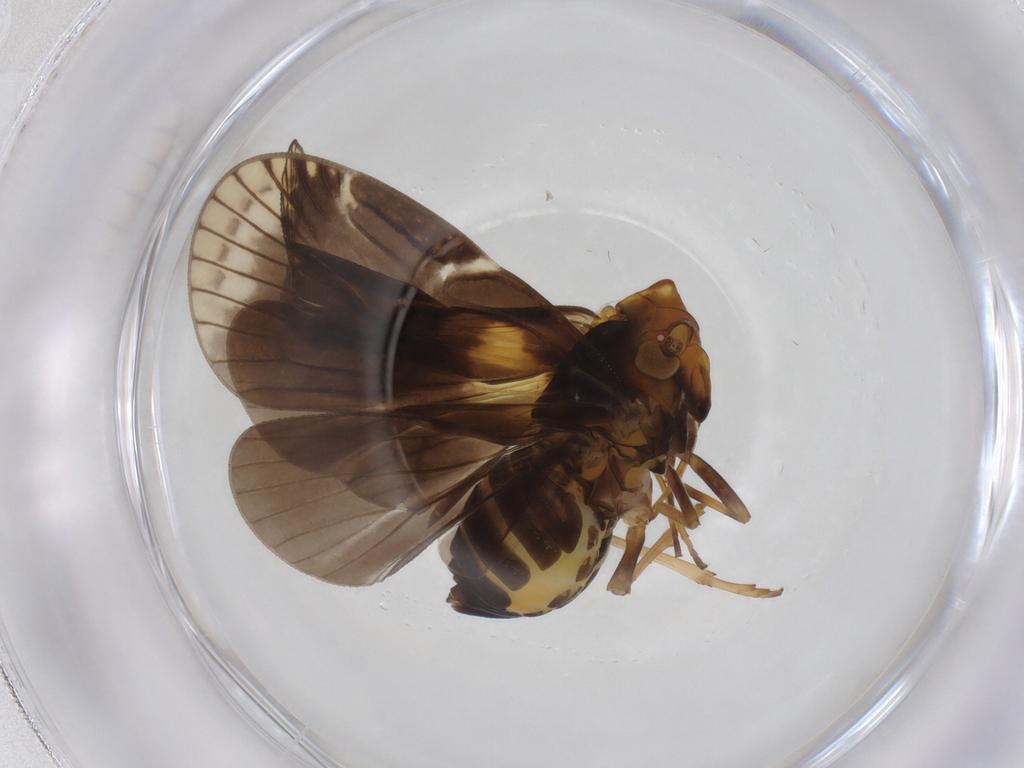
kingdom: Animalia
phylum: Arthropoda
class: Insecta
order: Hemiptera
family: Cixiidae
